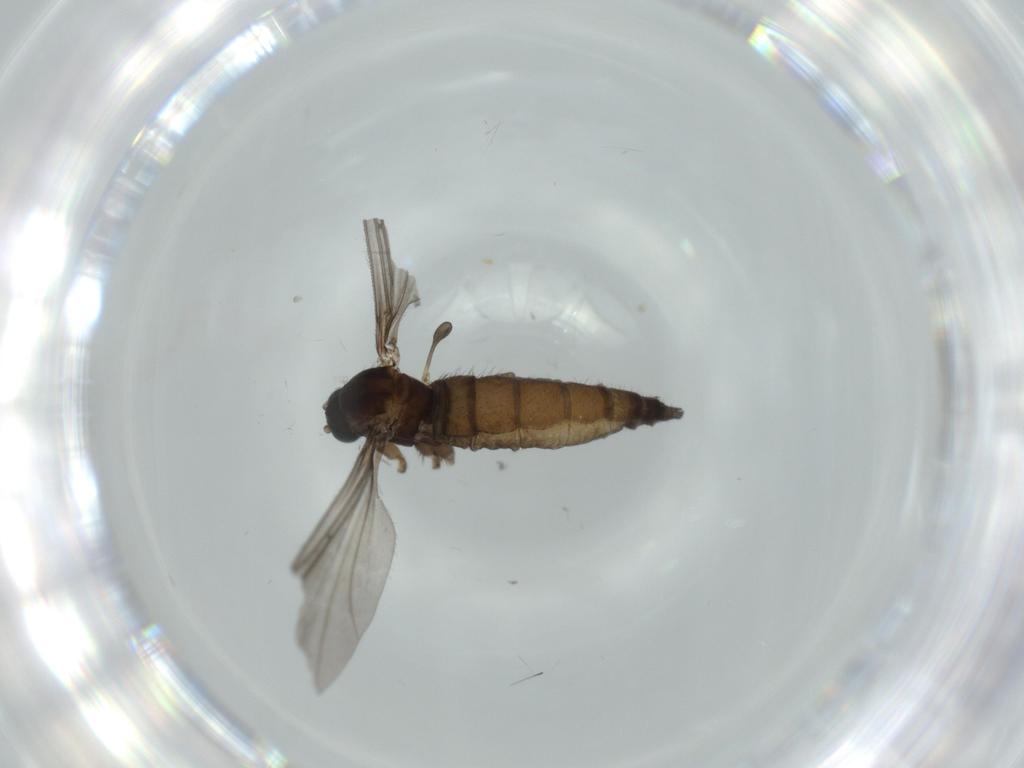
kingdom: Animalia
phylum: Arthropoda
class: Insecta
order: Diptera
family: Sciaridae
